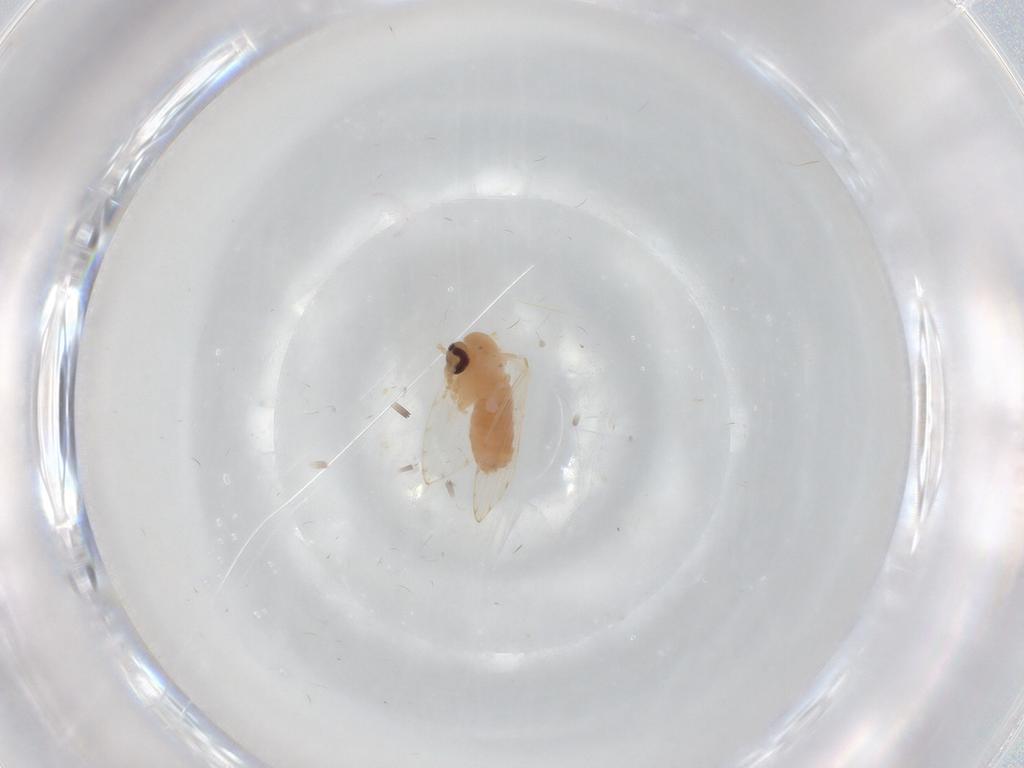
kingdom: Animalia
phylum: Arthropoda
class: Insecta
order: Diptera
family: Psychodidae
